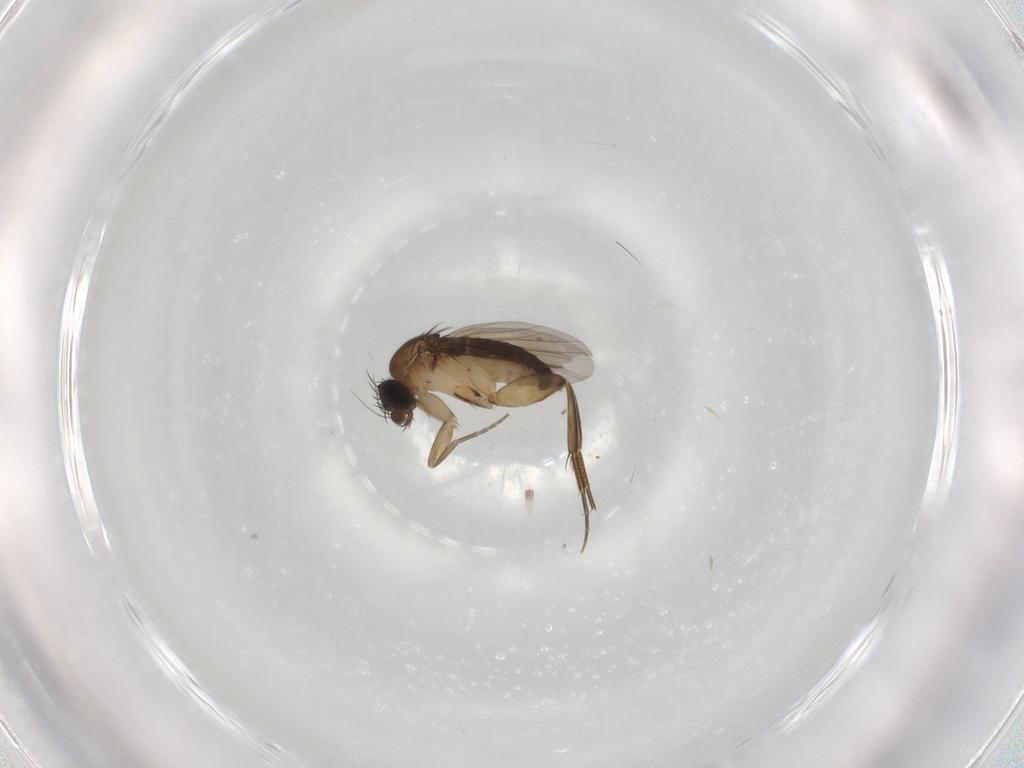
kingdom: Animalia
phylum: Arthropoda
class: Insecta
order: Diptera
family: Phoridae
